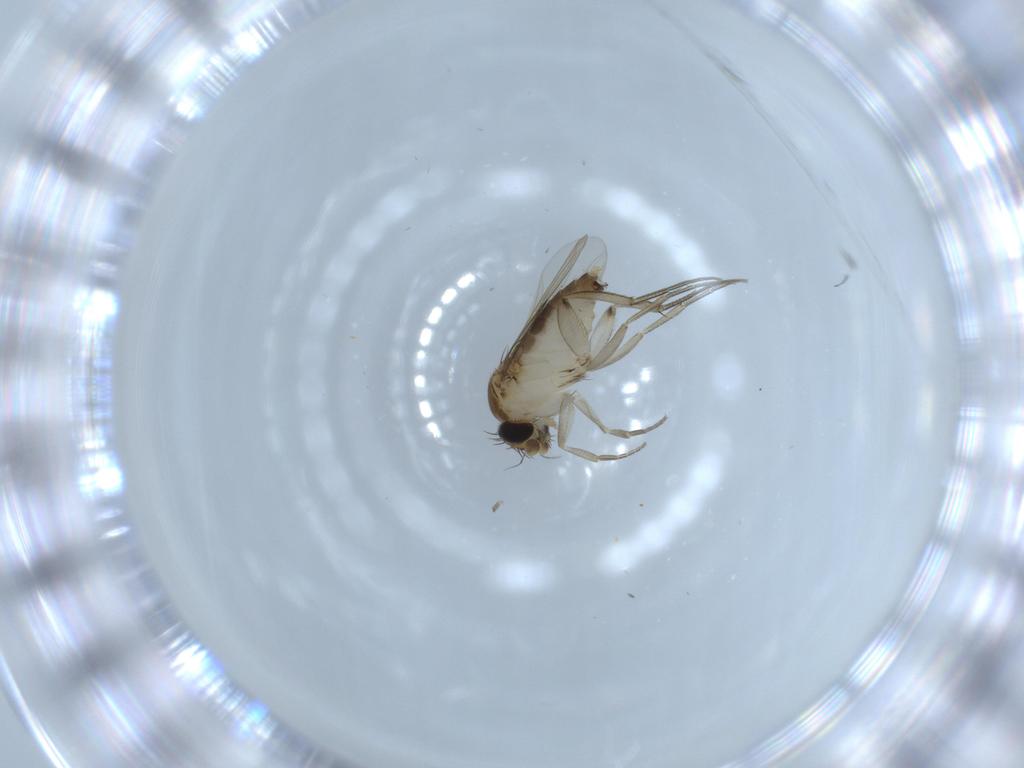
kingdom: Animalia
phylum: Arthropoda
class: Insecta
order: Diptera
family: Phoridae
